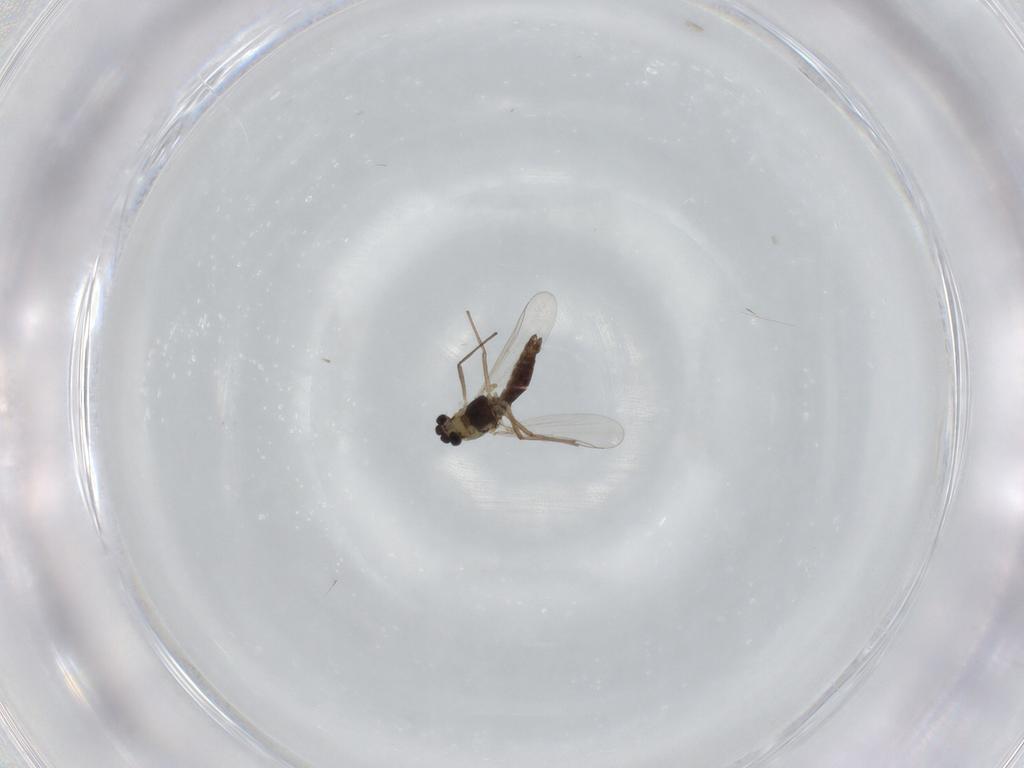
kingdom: Animalia
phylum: Arthropoda
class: Insecta
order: Diptera
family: Chironomidae
